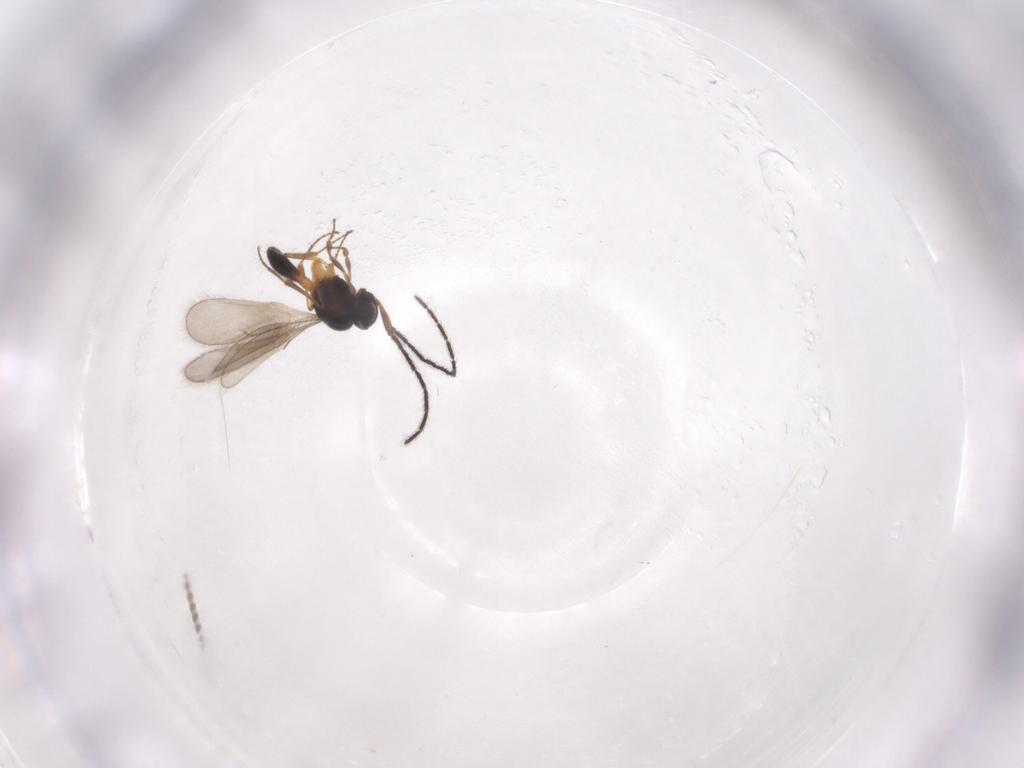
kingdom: Animalia
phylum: Arthropoda
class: Insecta
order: Hymenoptera
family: Scelionidae
